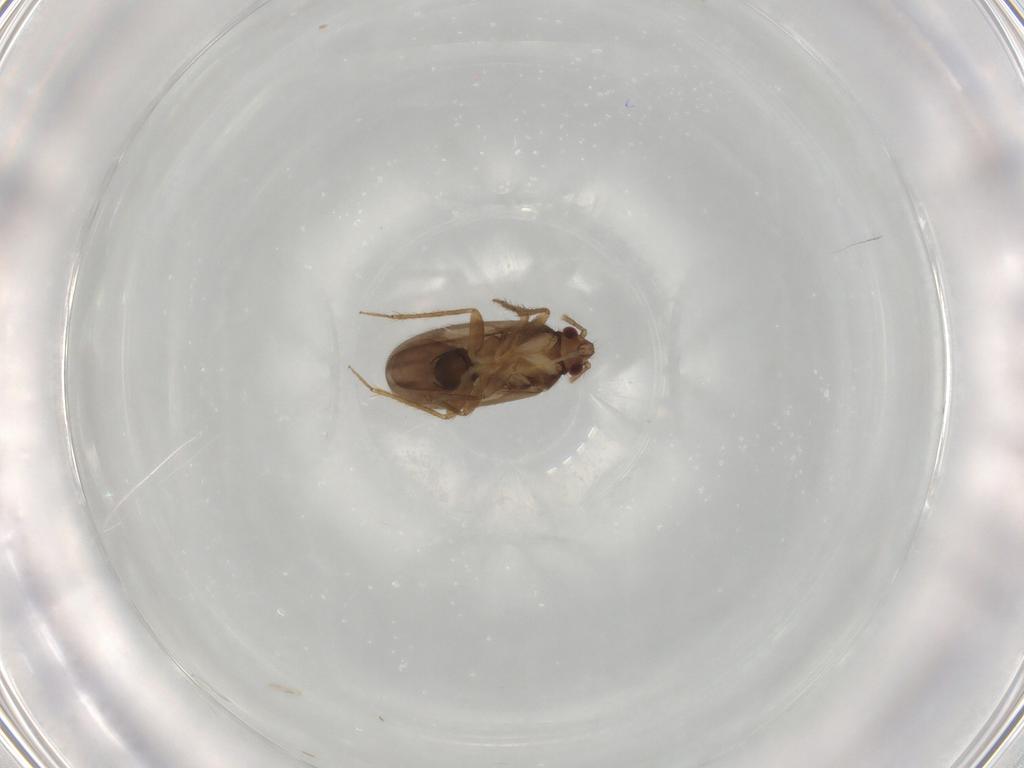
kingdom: Animalia
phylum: Arthropoda
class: Insecta
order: Hemiptera
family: Ceratocombidae
